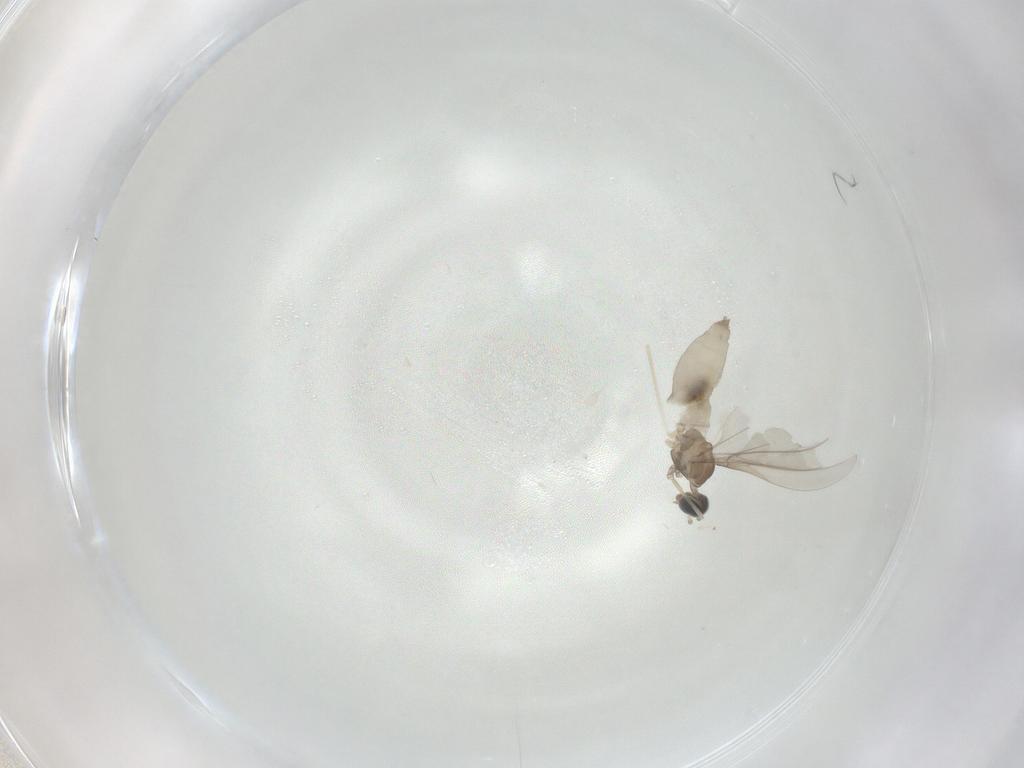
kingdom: Animalia
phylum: Arthropoda
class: Insecta
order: Diptera
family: Cecidomyiidae
